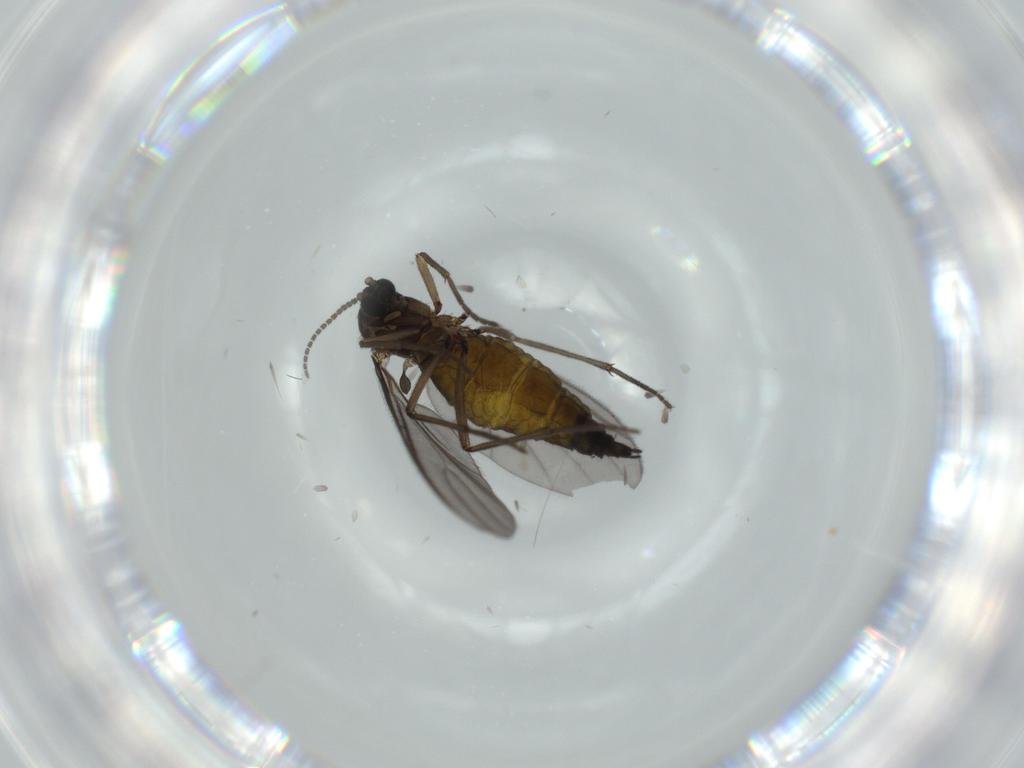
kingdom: Animalia
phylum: Arthropoda
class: Insecta
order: Diptera
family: Sciaridae
